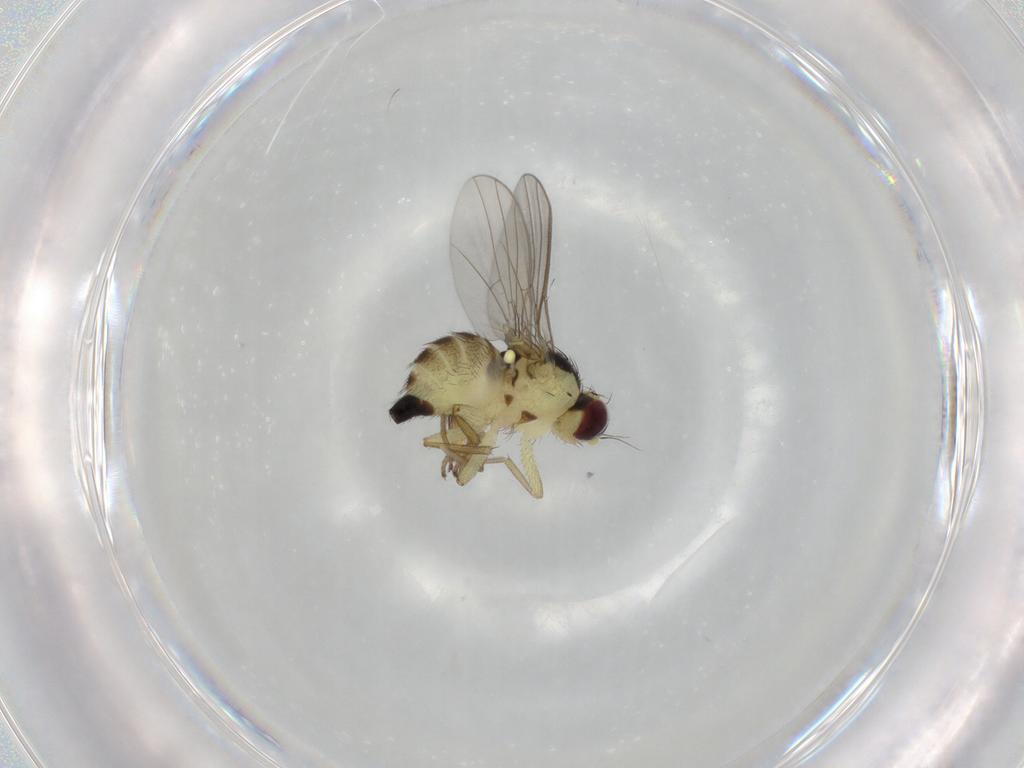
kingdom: Animalia
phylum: Arthropoda
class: Insecta
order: Diptera
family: Agromyzidae
